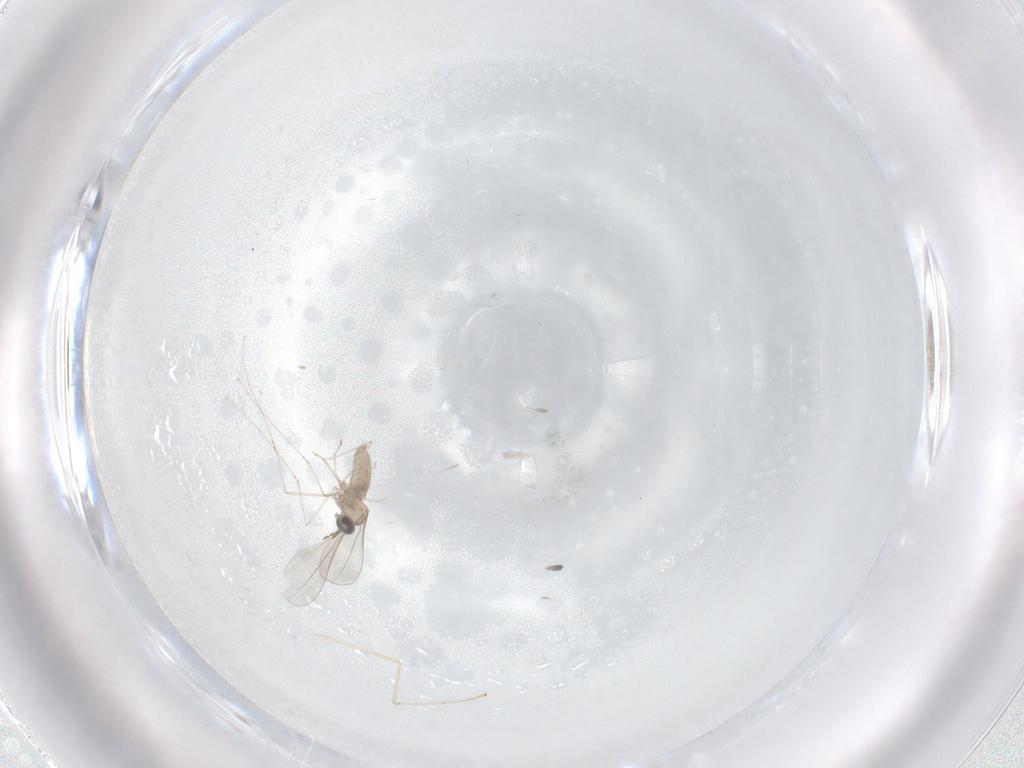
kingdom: Animalia
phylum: Arthropoda
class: Insecta
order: Diptera
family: Cecidomyiidae
